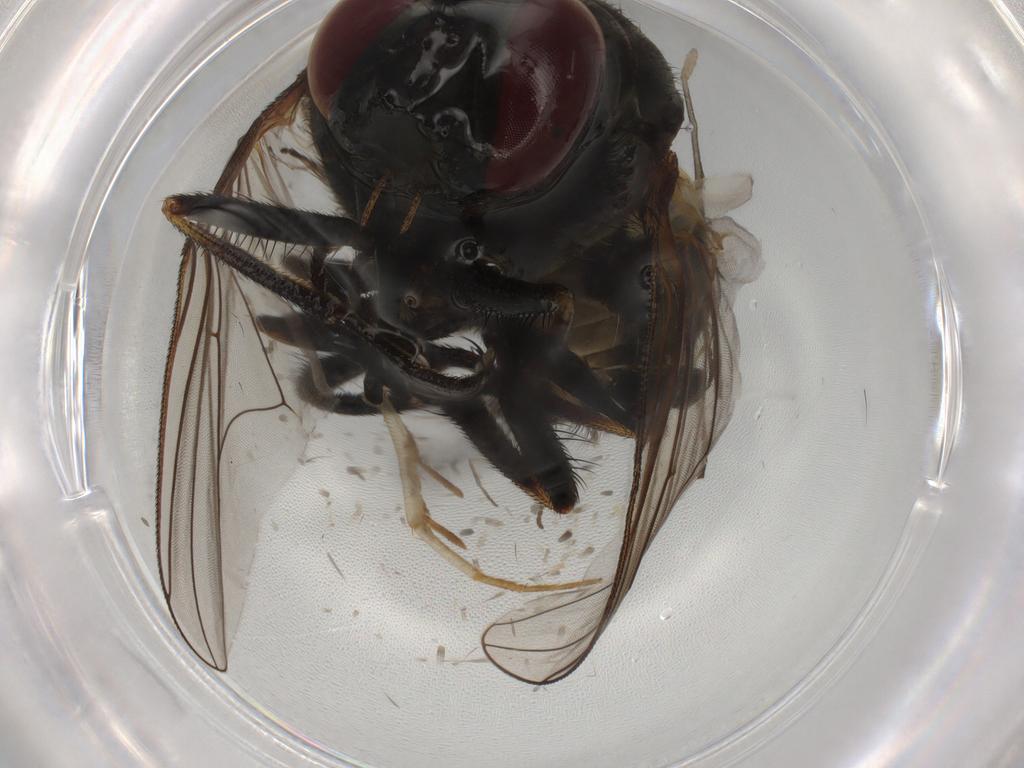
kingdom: Animalia
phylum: Arthropoda
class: Insecta
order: Diptera
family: Muscidae
